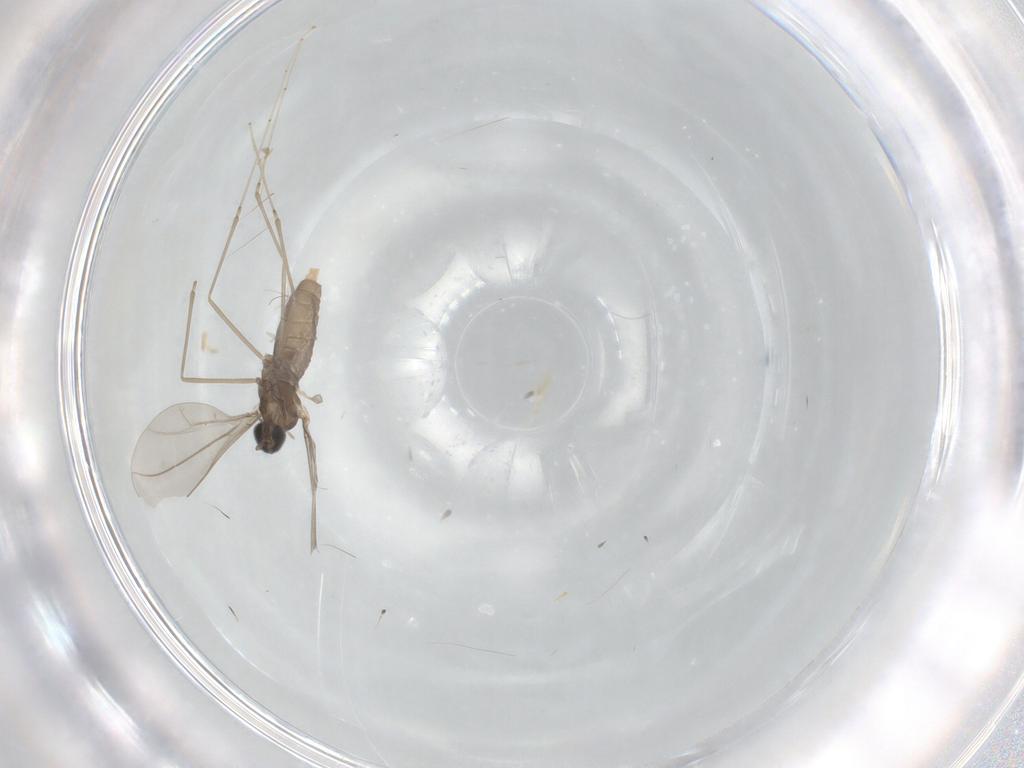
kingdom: Animalia
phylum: Arthropoda
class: Insecta
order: Diptera
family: Cecidomyiidae
